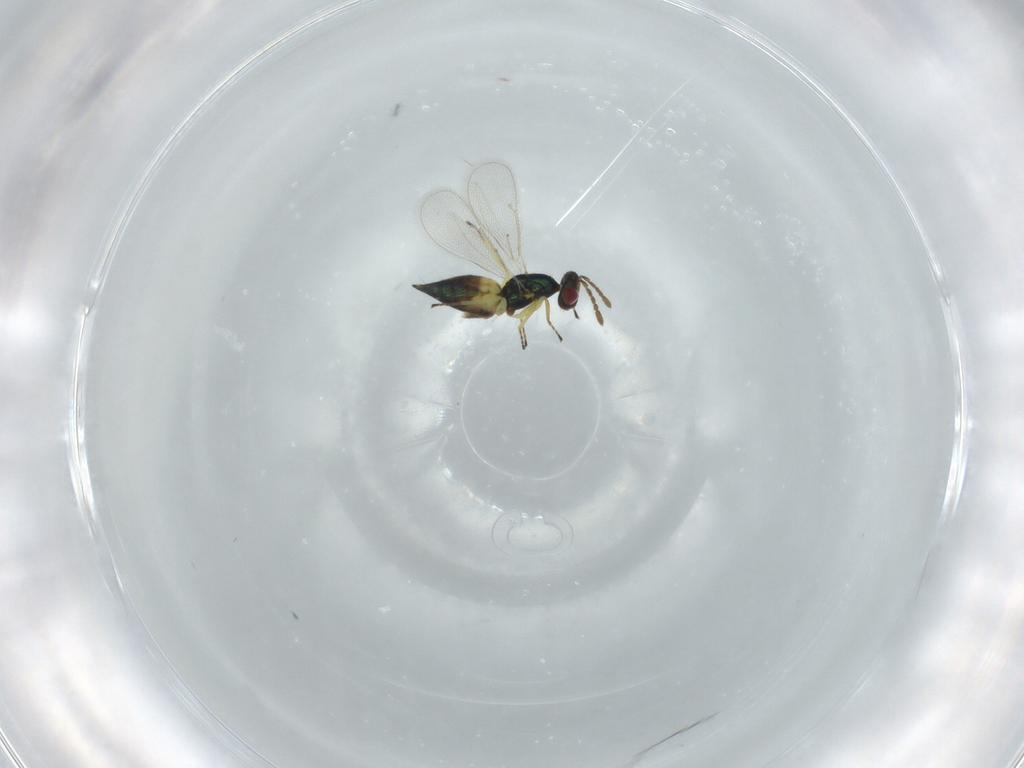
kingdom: Animalia
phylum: Arthropoda
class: Insecta
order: Hymenoptera
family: Eulophidae
